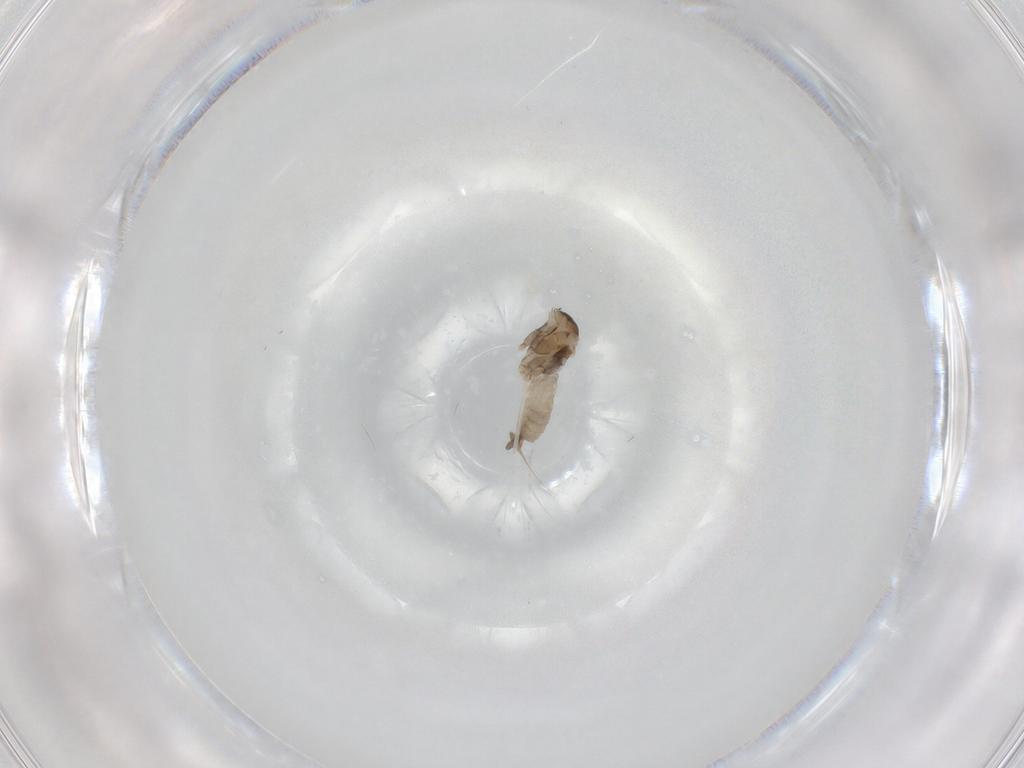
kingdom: Animalia
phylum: Arthropoda
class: Insecta
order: Diptera
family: Cecidomyiidae
